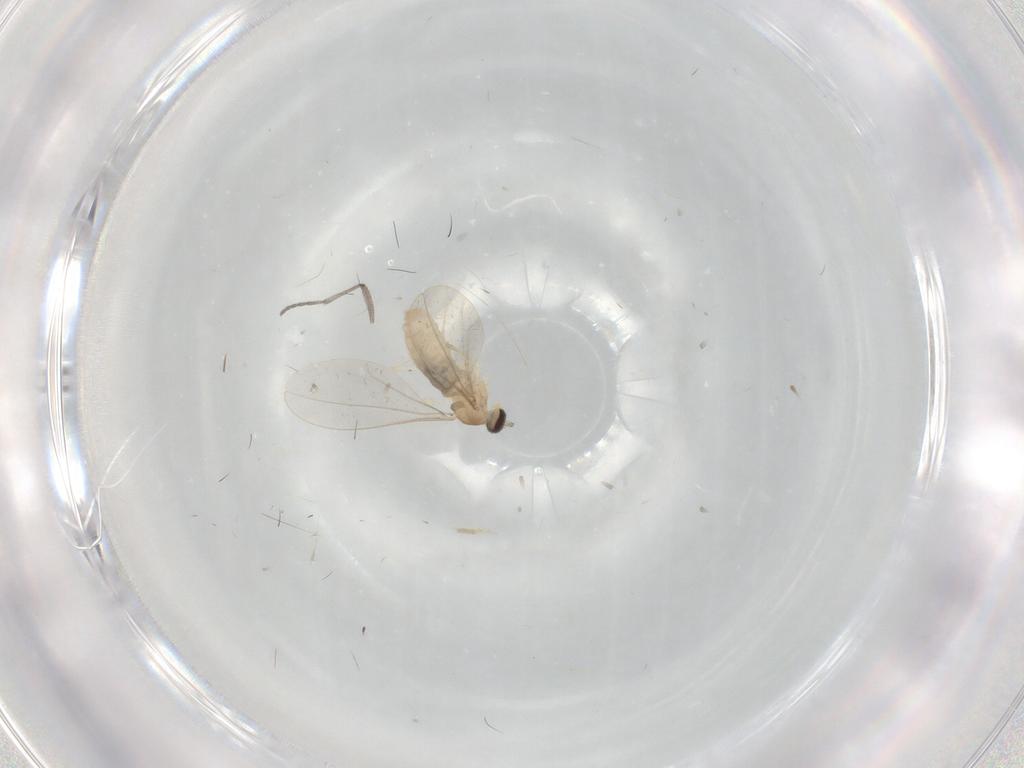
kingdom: Animalia
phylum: Arthropoda
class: Insecta
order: Diptera
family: Sciaridae
